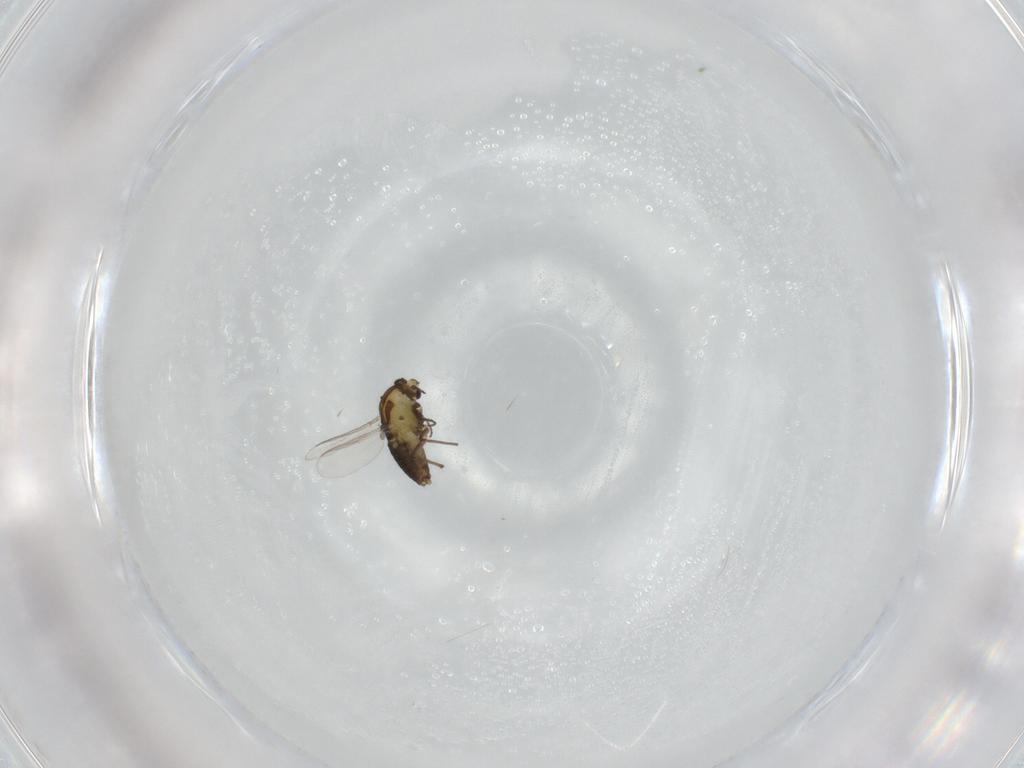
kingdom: Animalia
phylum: Arthropoda
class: Insecta
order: Diptera
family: Chironomidae
